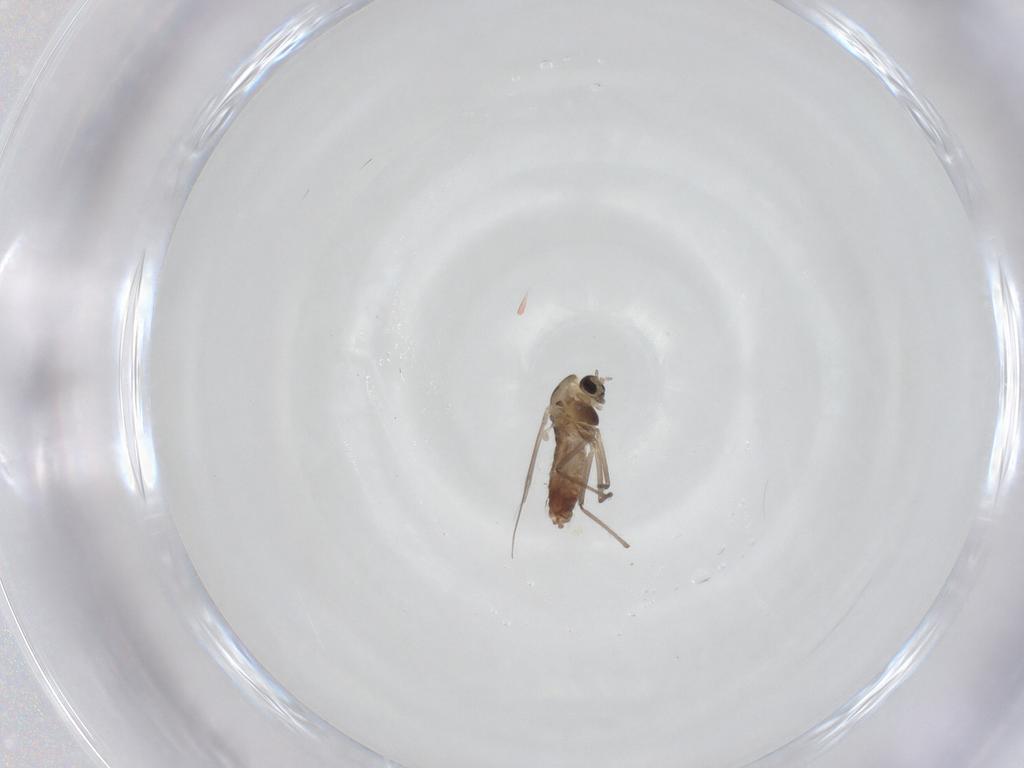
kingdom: Animalia
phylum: Arthropoda
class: Insecta
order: Diptera
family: Chironomidae
